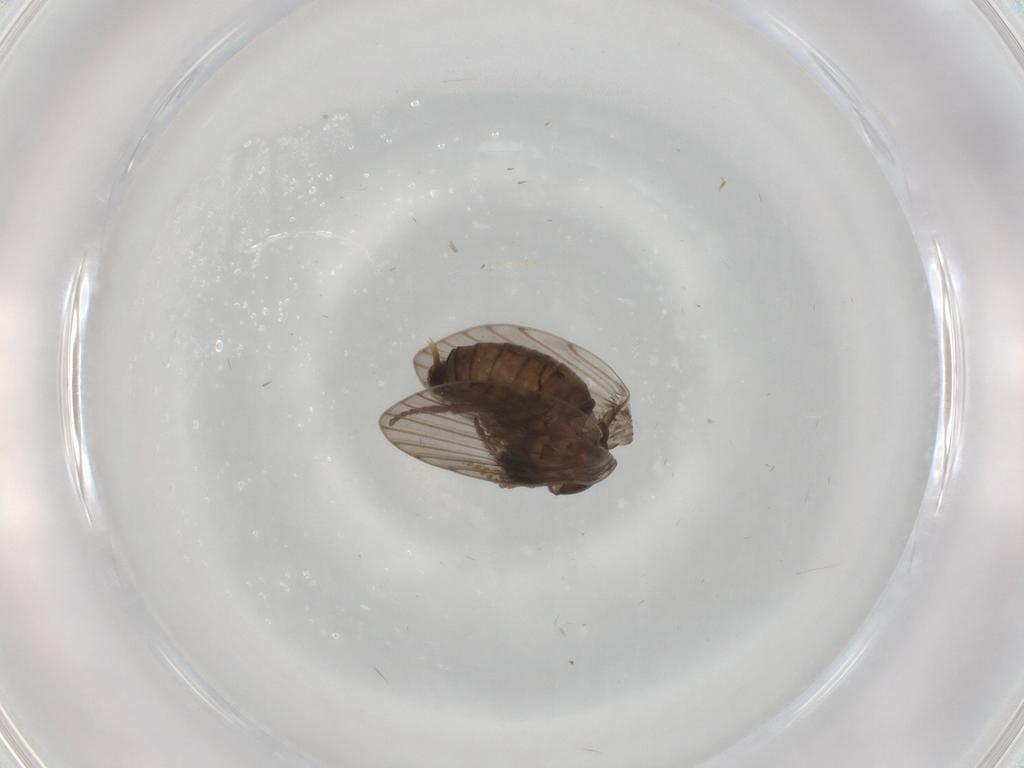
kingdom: Animalia
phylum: Arthropoda
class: Insecta
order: Diptera
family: Psychodidae
